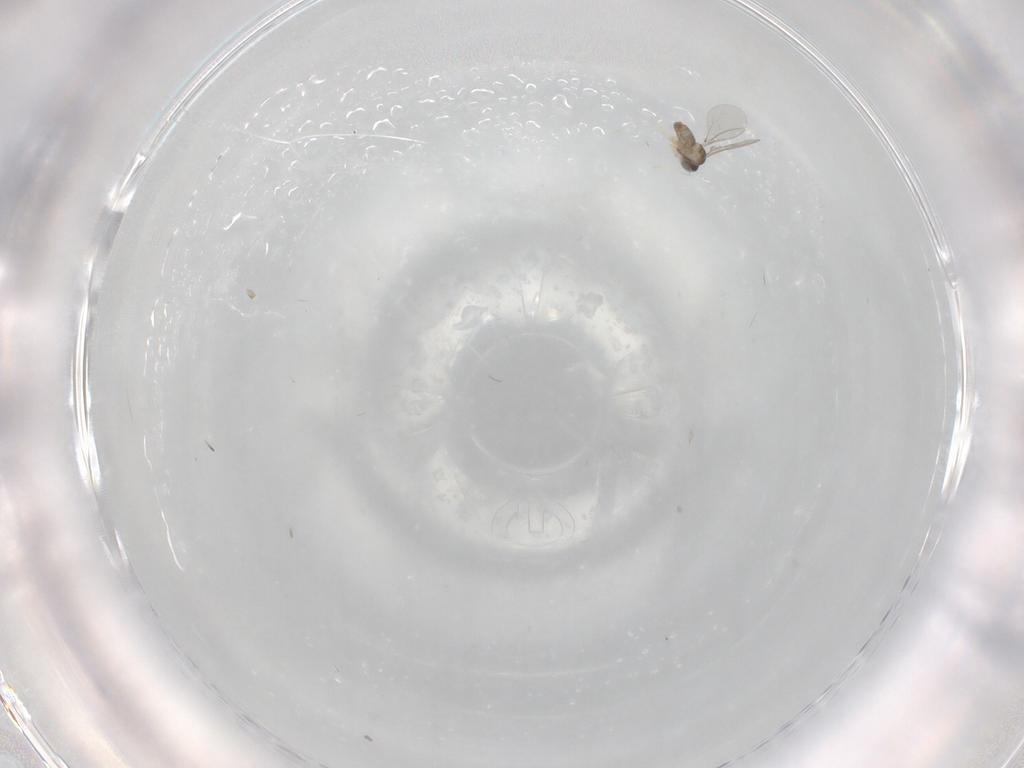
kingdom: Animalia
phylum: Arthropoda
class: Insecta
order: Diptera
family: Phoridae
